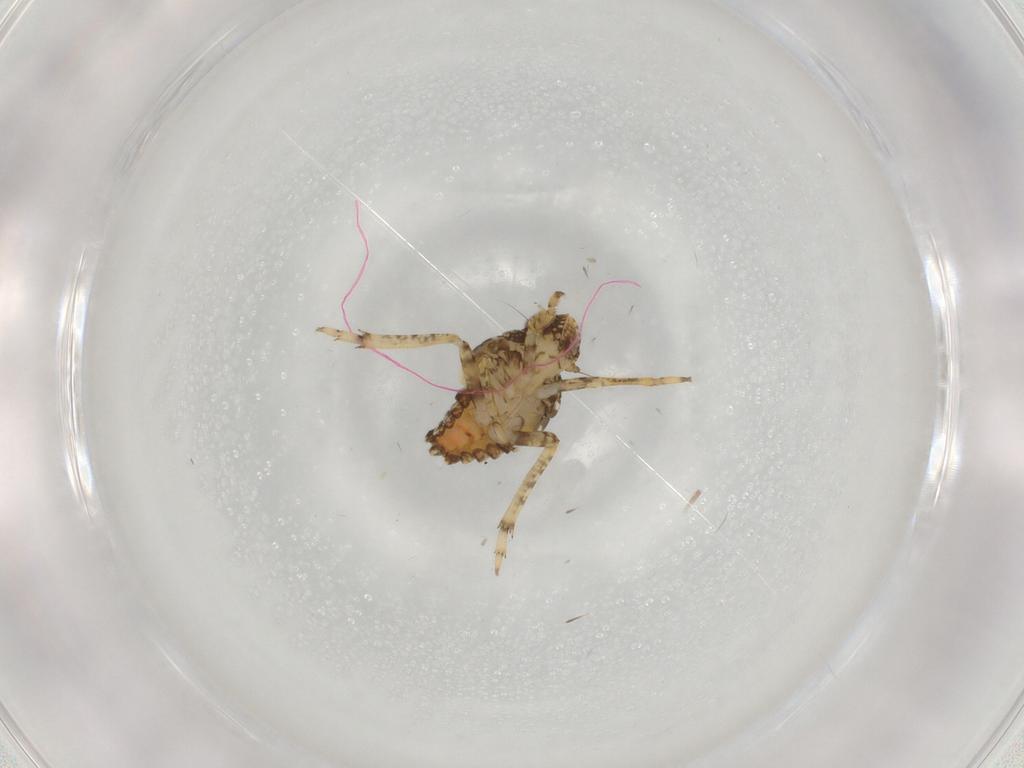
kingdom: Animalia
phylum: Arthropoda
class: Insecta
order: Hemiptera
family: Issidae
